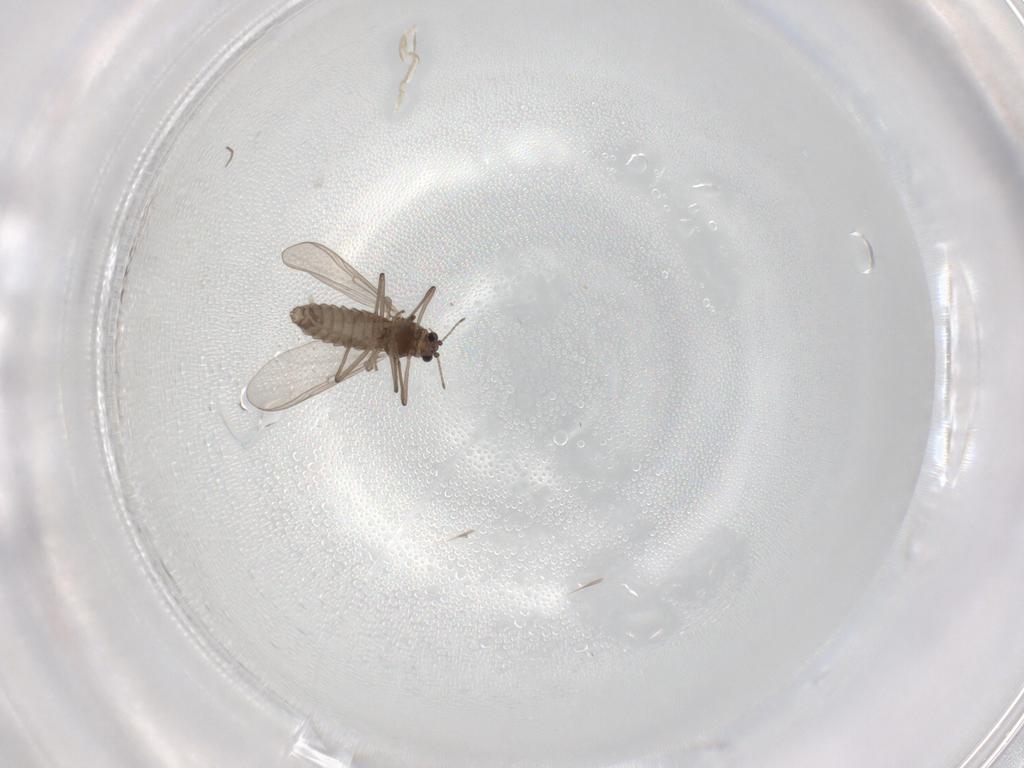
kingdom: Animalia
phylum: Arthropoda
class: Insecta
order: Diptera
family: Chironomidae
